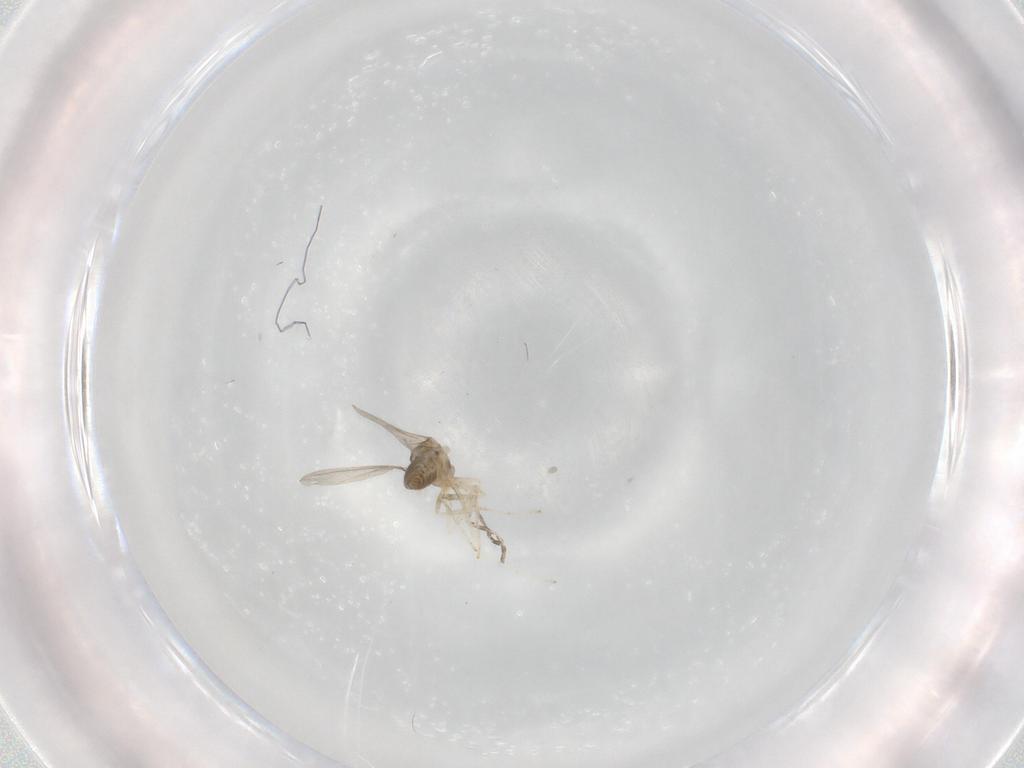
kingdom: Animalia
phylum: Arthropoda
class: Insecta
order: Diptera
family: Cecidomyiidae
